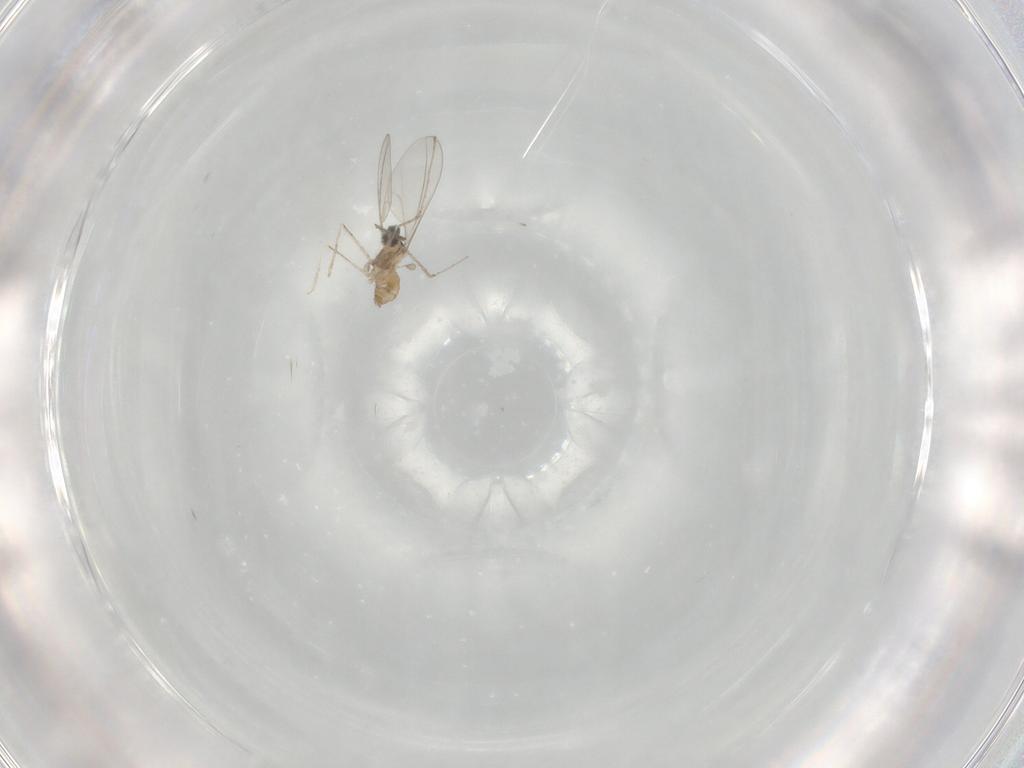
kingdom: Animalia
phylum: Arthropoda
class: Insecta
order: Diptera
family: Cecidomyiidae
